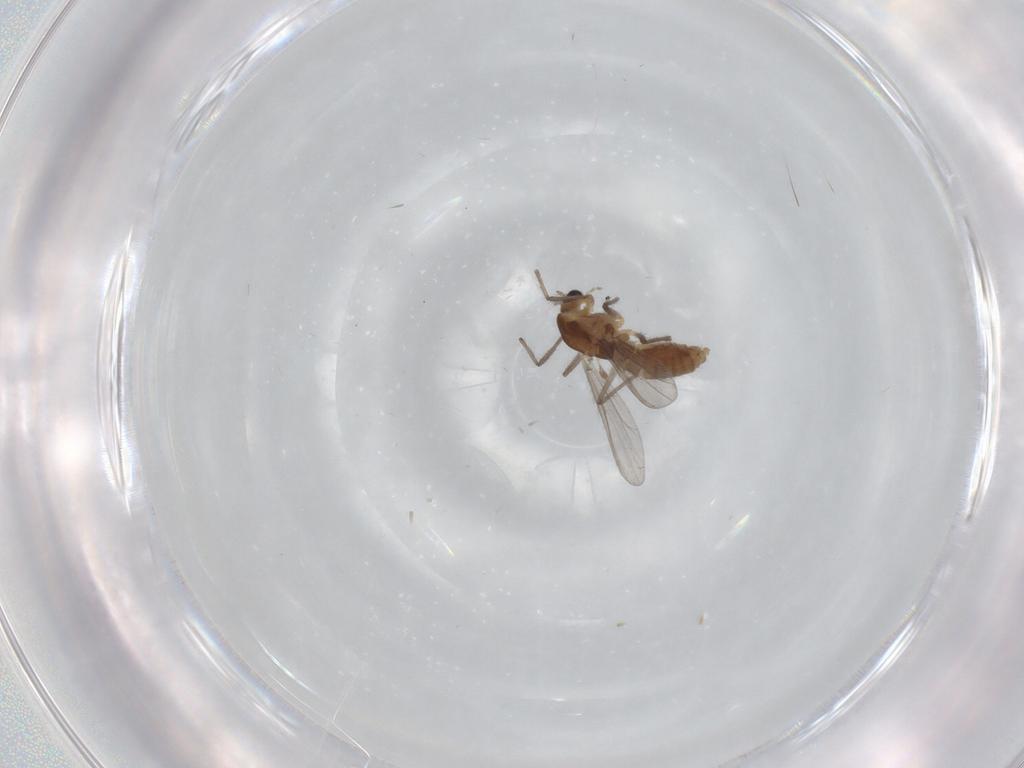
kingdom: Animalia
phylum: Arthropoda
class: Insecta
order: Diptera
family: Chironomidae
